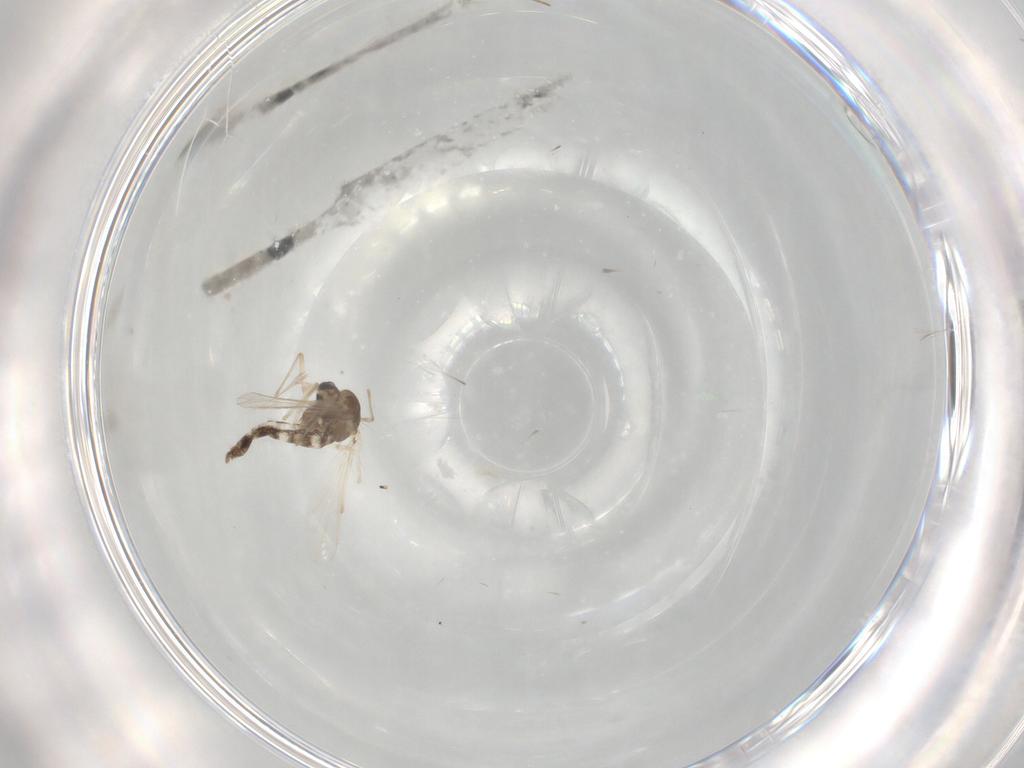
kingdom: Animalia
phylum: Arthropoda
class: Insecta
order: Diptera
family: Chironomidae
